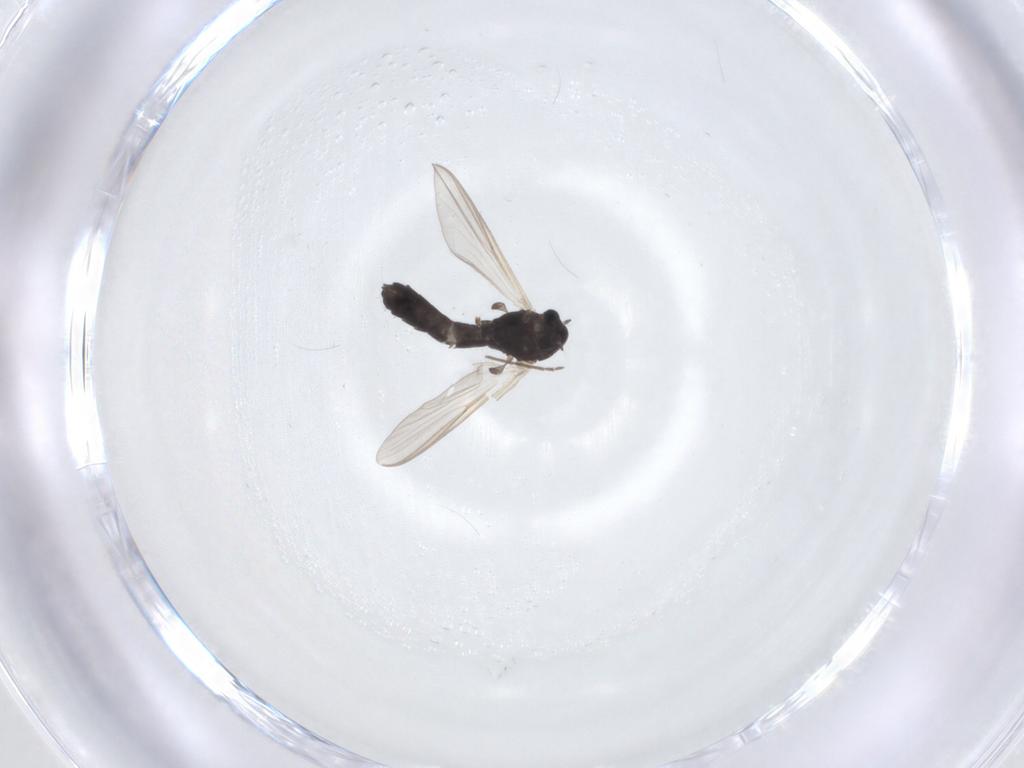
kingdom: Animalia
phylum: Arthropoda
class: Insecta
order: Diptera
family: Chironomidae
